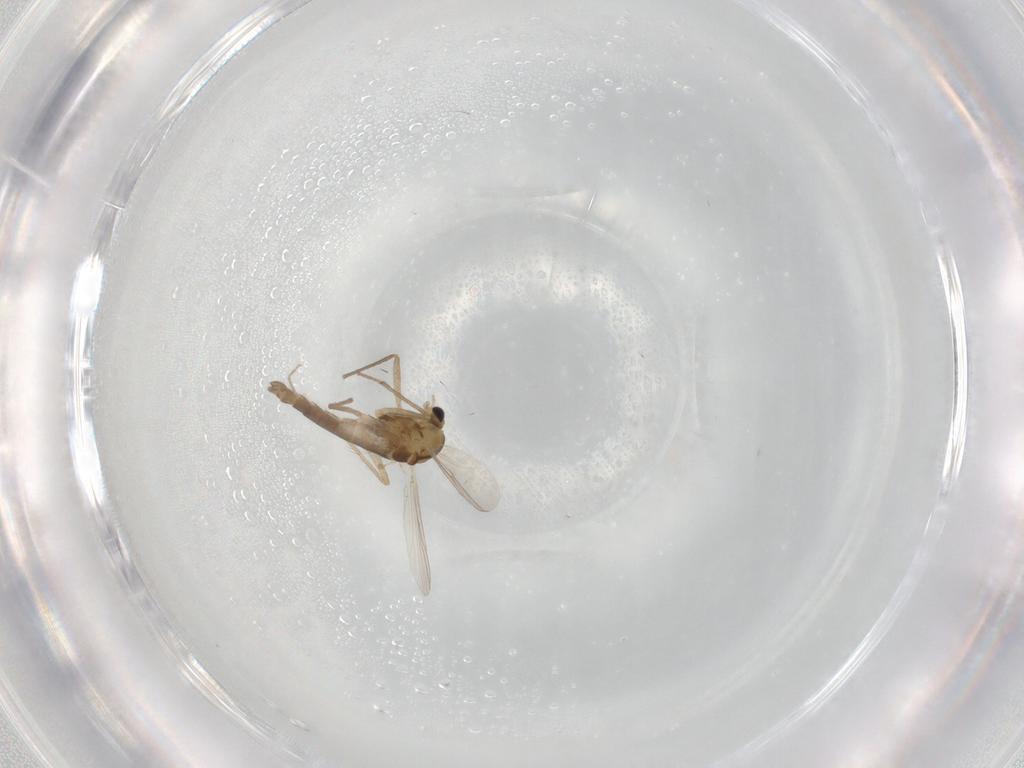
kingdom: Animalia
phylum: Arthropoda
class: Insecta
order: Diptera
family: Chironomidae
